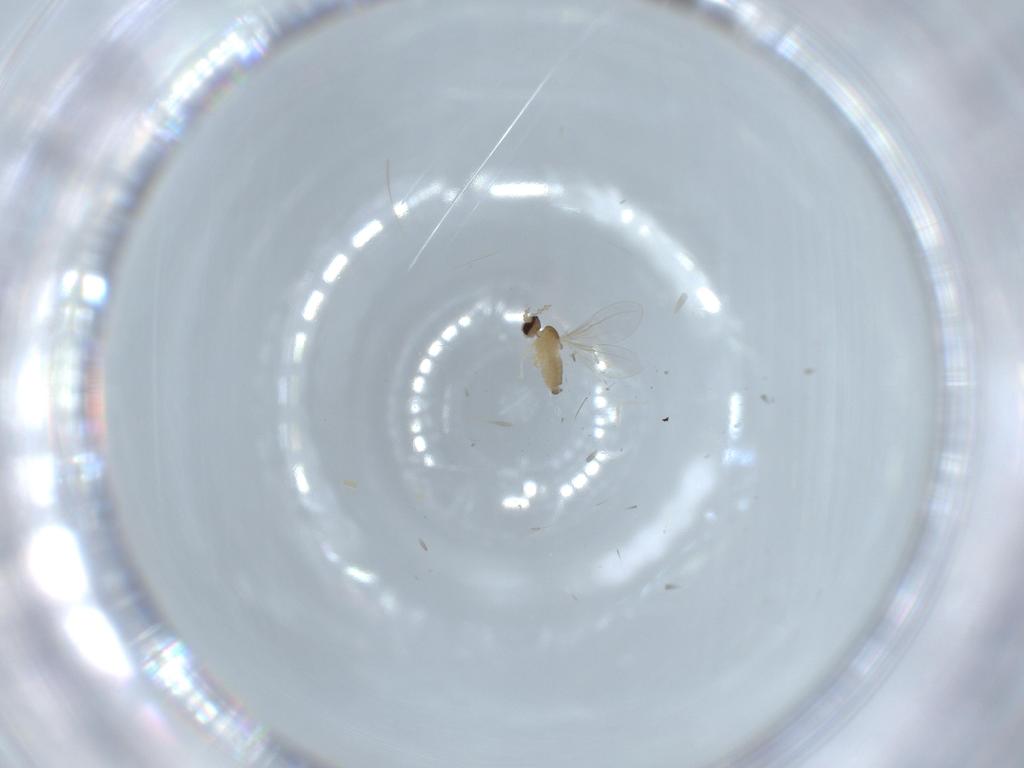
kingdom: Animalia
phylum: Arthropoda
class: Insecta
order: Diptera
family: Cecidomyiidae
